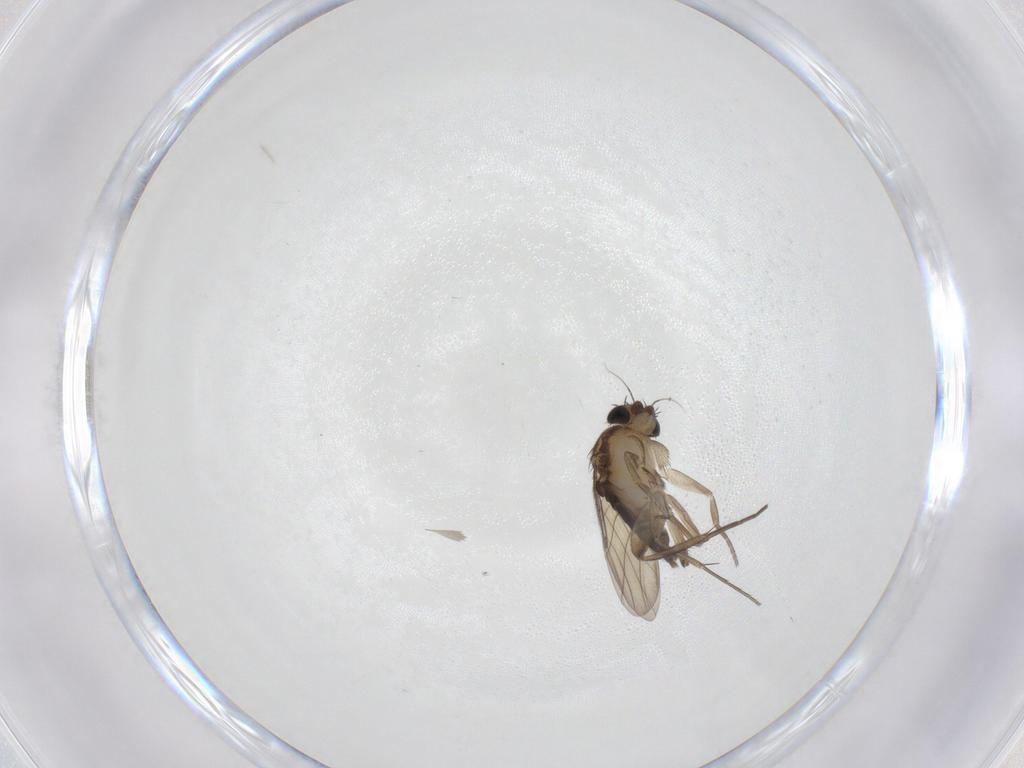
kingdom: Animalia
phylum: Arthropoda
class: Insecta
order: Diptera
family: Phoridae
